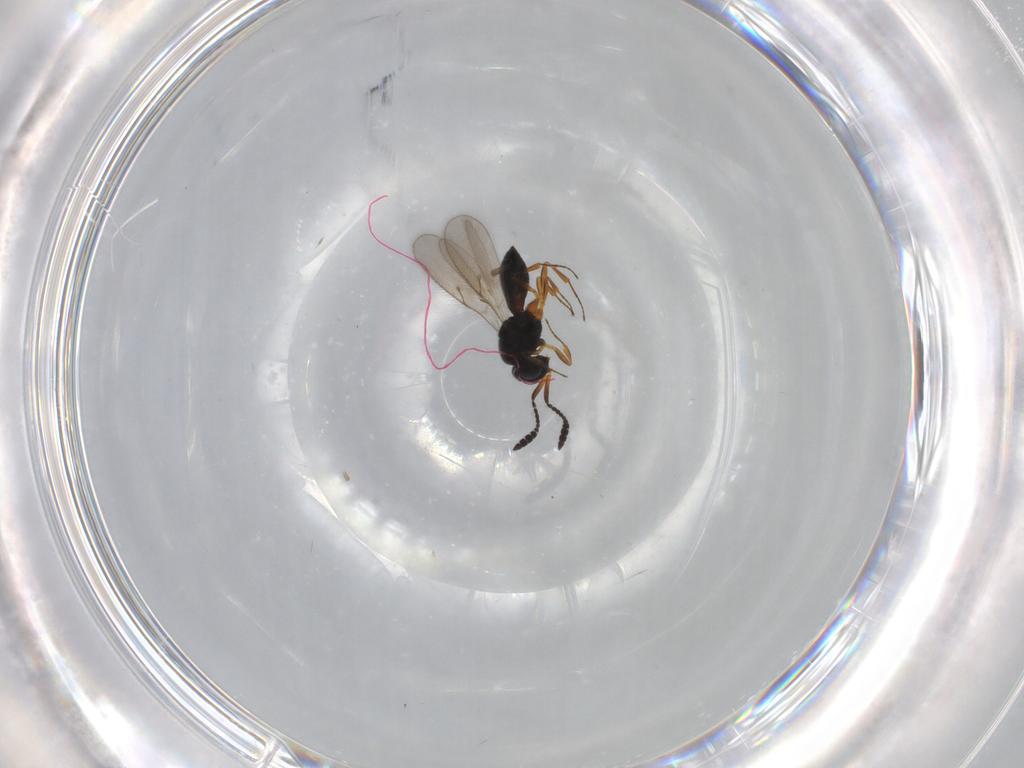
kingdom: Animalia
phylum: Arthropoda
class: Insecta
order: Hymenoptera
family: Scelionidae
